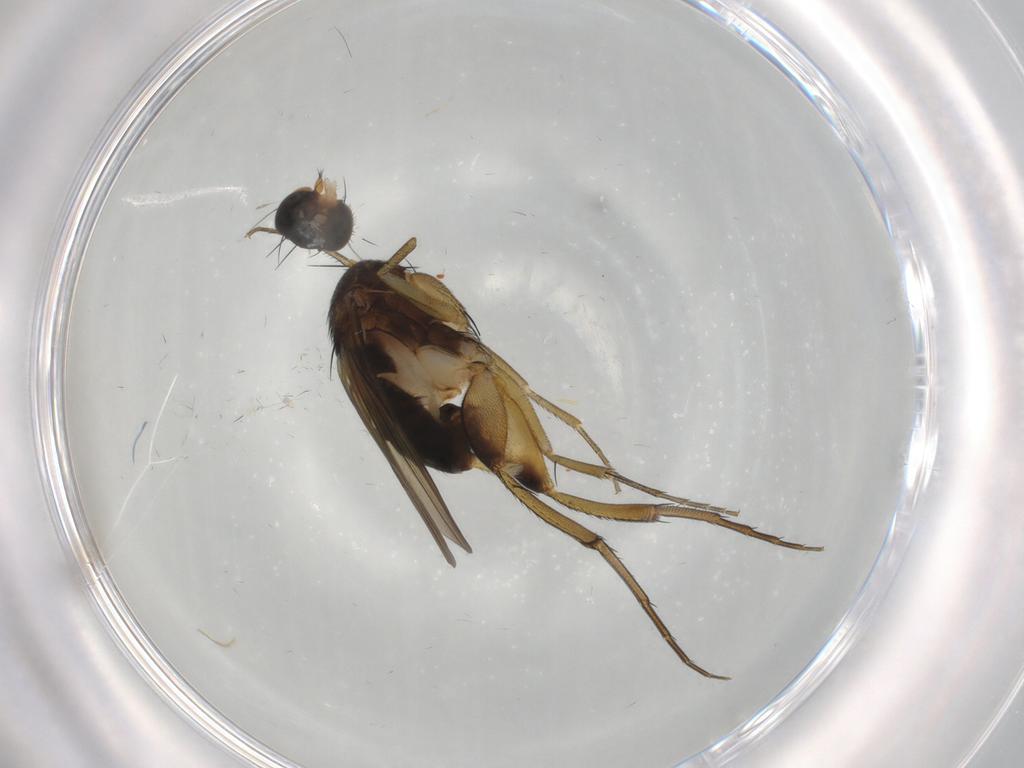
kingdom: Animalia
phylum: Arthropoda
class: Insecta
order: Diptera
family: Phoridae
